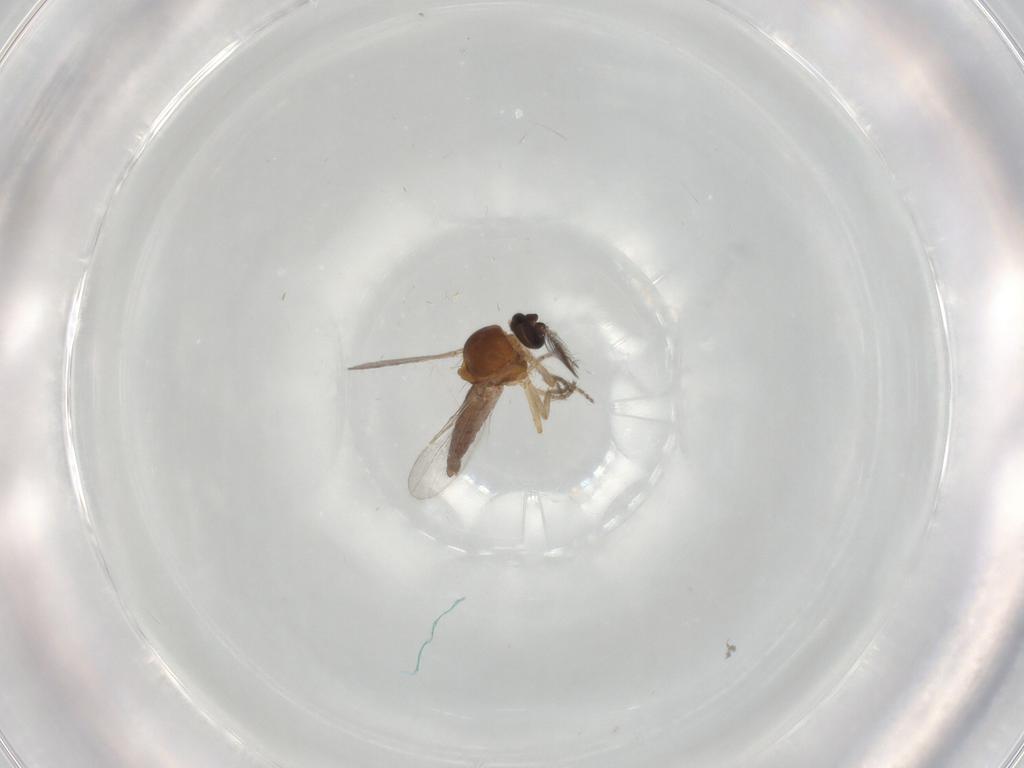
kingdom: Animalia
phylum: Arthropoda
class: Insecta
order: Diptera
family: Ceratopogonidae
